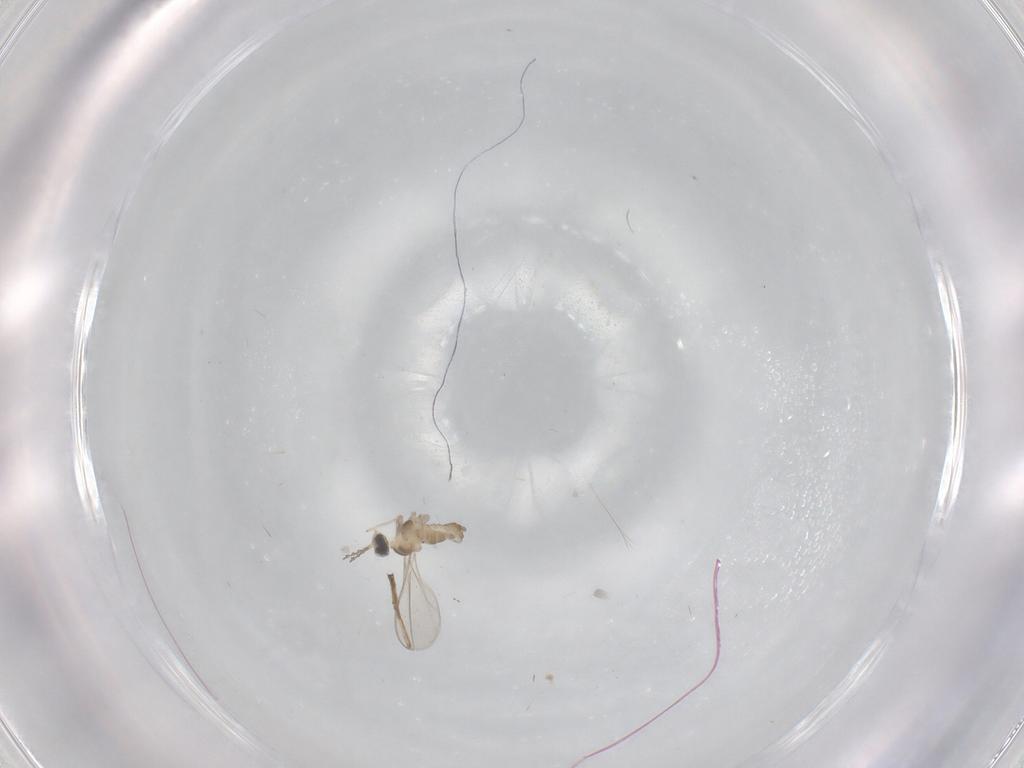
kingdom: Animalia
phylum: Arthropoda
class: Insecta
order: Diptera
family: Cecidomyiidae
